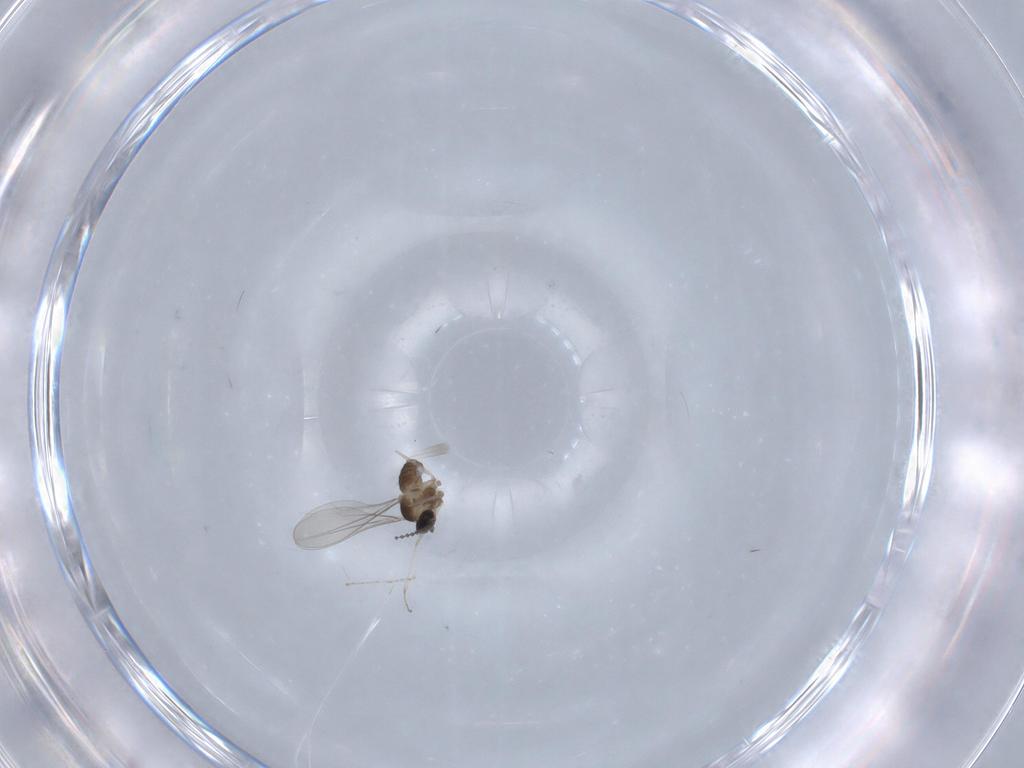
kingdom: Animalia
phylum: Arthropoda
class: Insecta
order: Diptera
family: Cecidomyiidae
